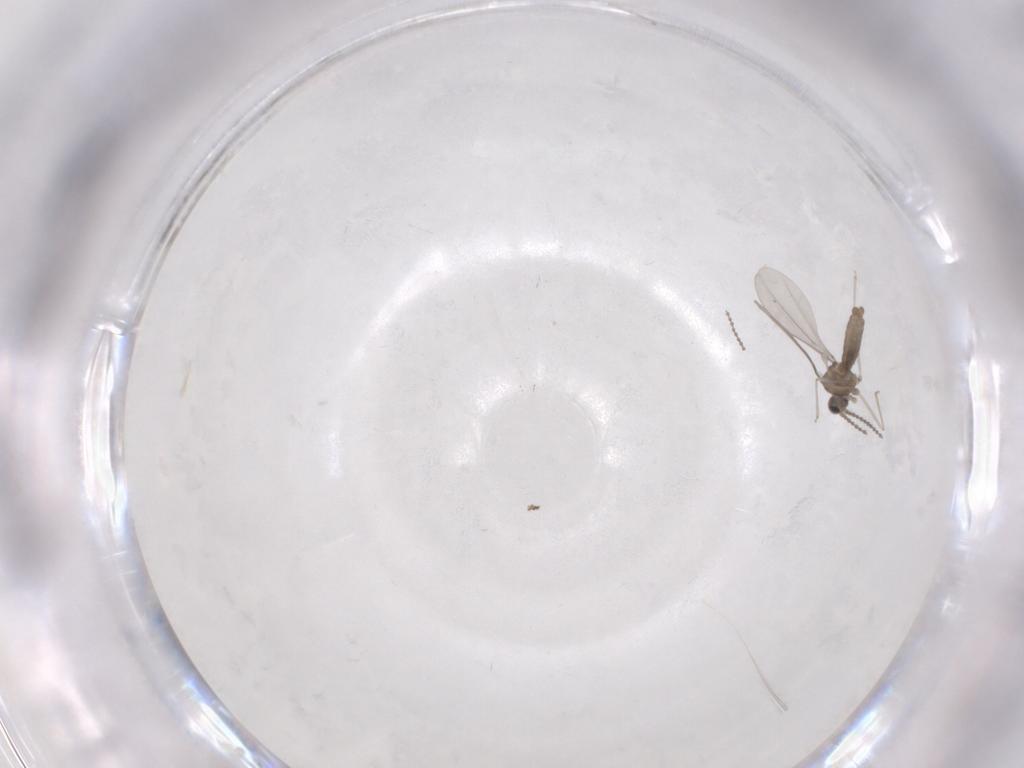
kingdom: Animalia
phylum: Arthropoda
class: Insecta
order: Diptera
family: Cecidomyiidae
